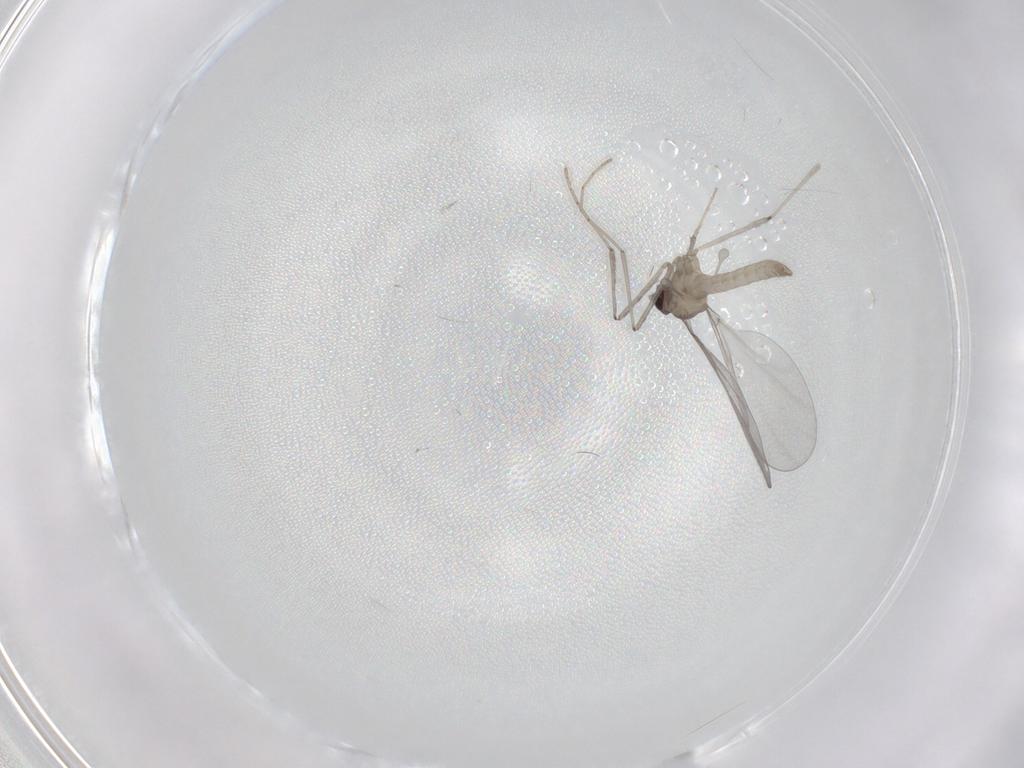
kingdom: Animalia
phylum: Arthropoda
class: Insecta
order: Diptera
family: Cecidomyiidae
